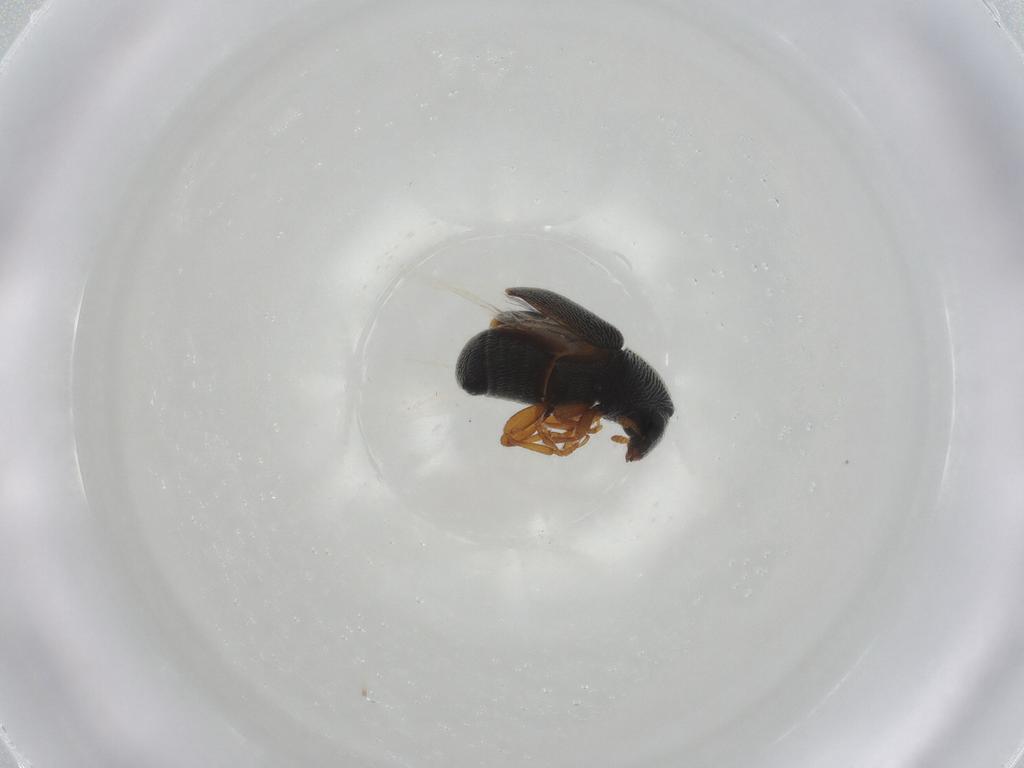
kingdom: Animalia
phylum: Arthropoda
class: Insecta
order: Coleoptera
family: Anthribidae
